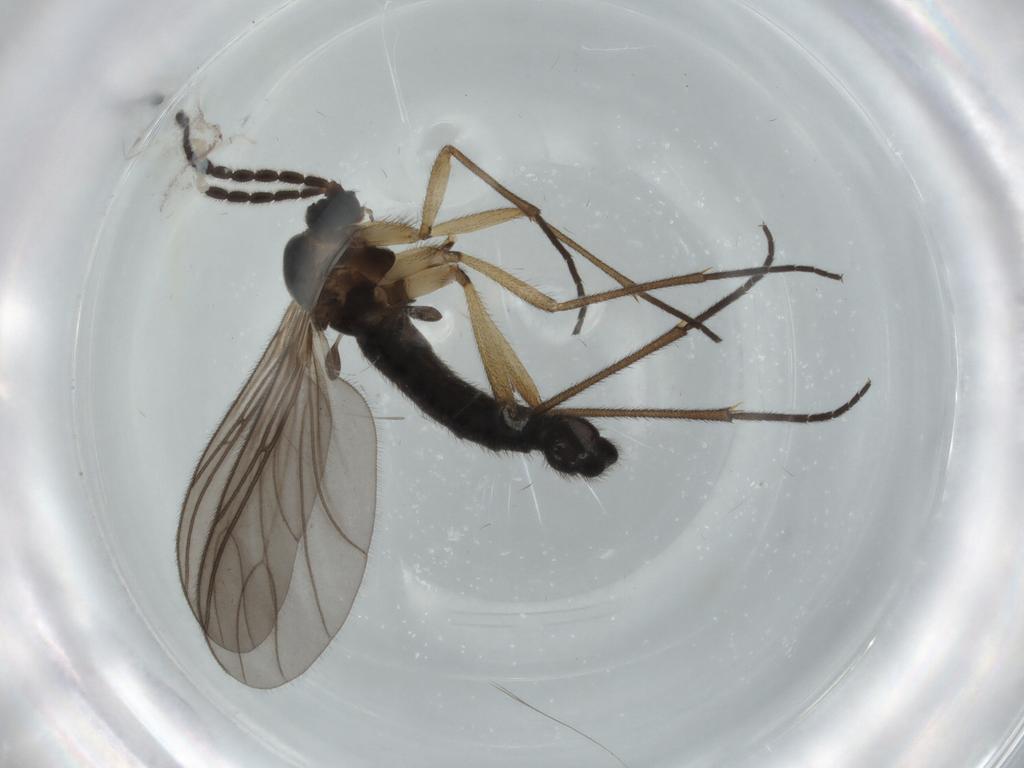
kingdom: Animalia
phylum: Arthropoda
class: Insecta
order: Diptera
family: Sciaridae
